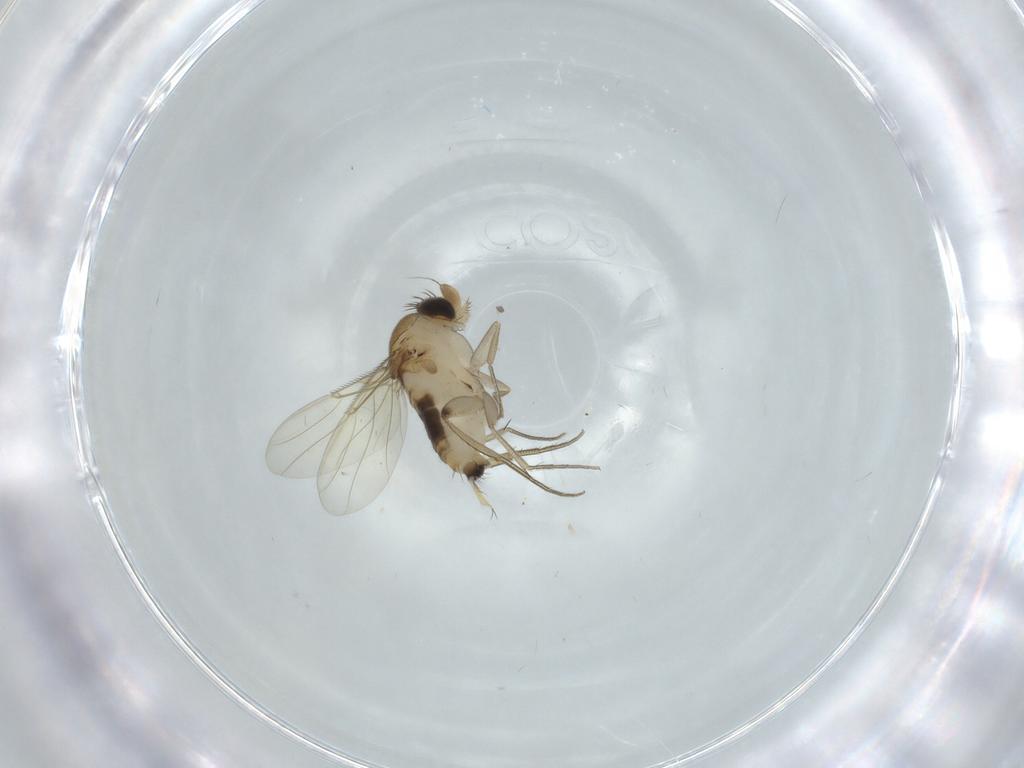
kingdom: Animalia
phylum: Arthropoda
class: Insecta
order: Diptera
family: Phoridae
